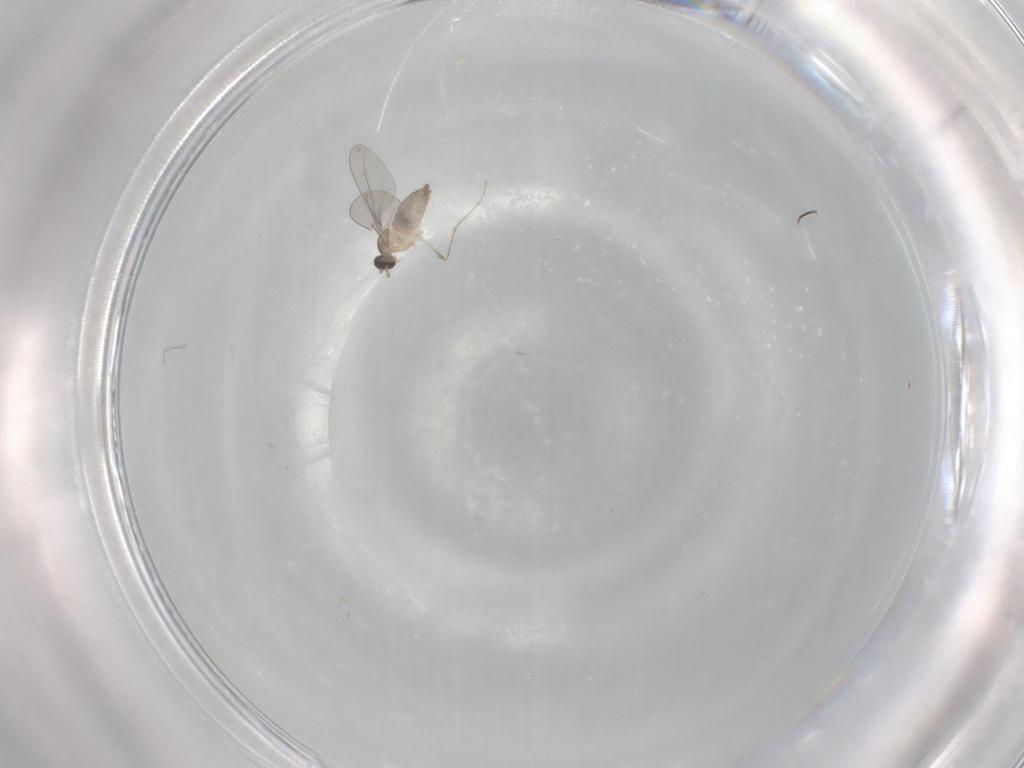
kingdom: Animalia
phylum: Arthropoda
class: Insecta
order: Diptera
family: Cecidomyiidae
